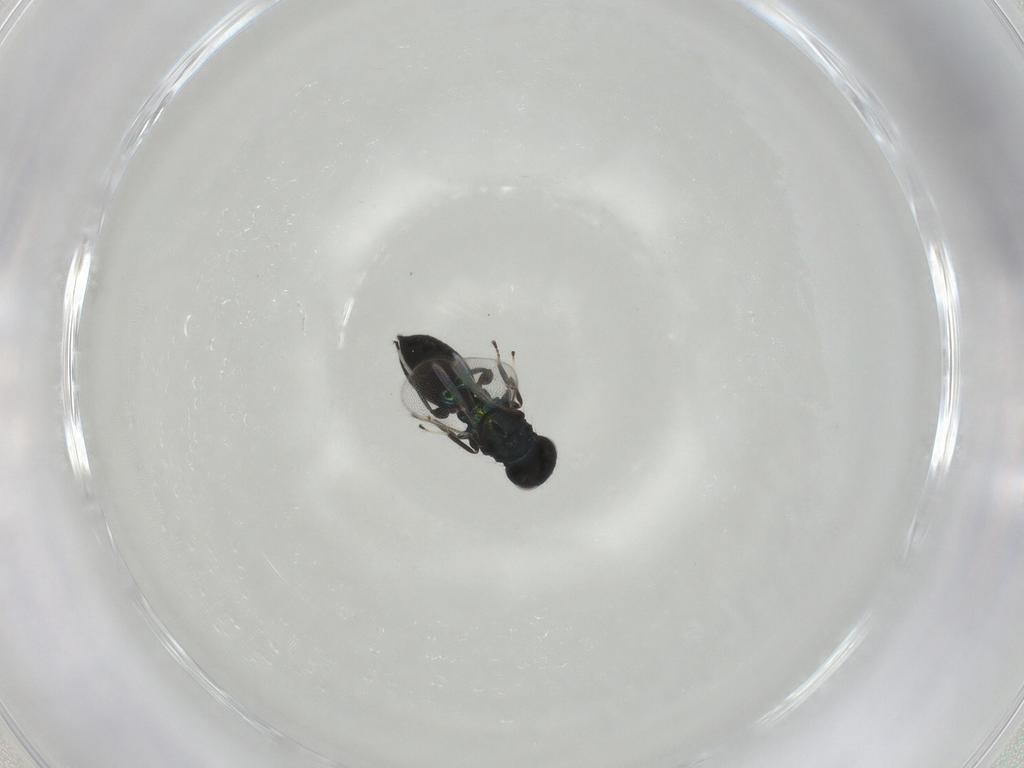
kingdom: Animalia
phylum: Arthropoda
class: Insecta
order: Hymenoptera
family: Eulophidae
